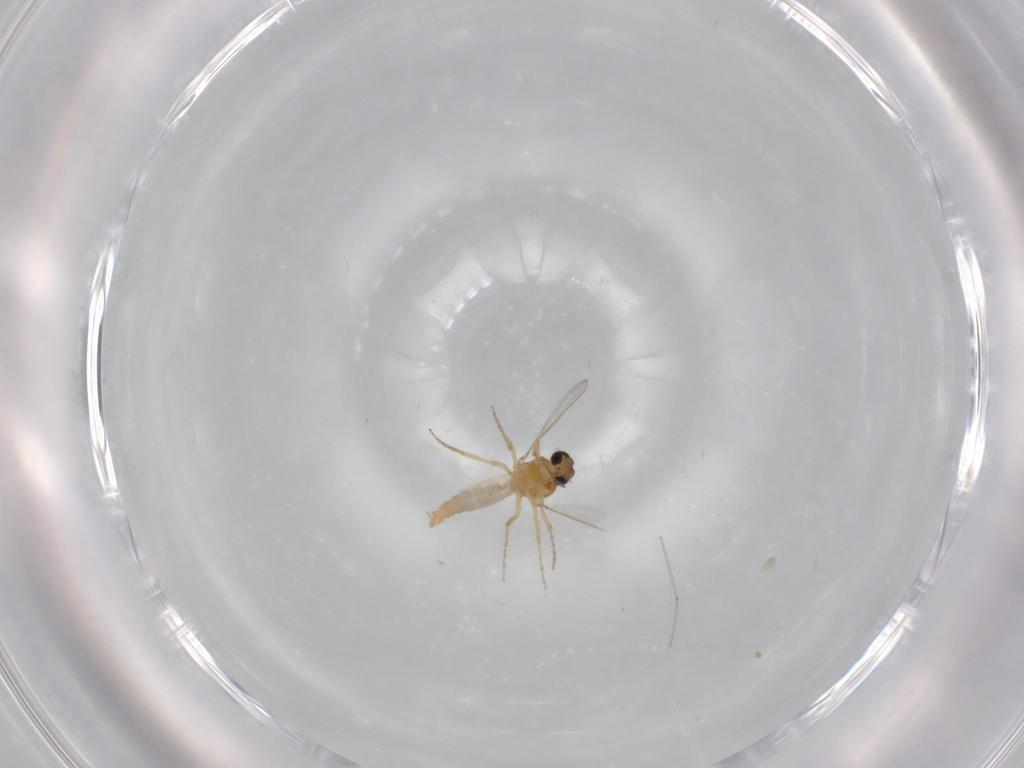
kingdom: Animalia
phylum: Arthropoda
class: Insecta
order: Diptera
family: Ceratopogonidae
